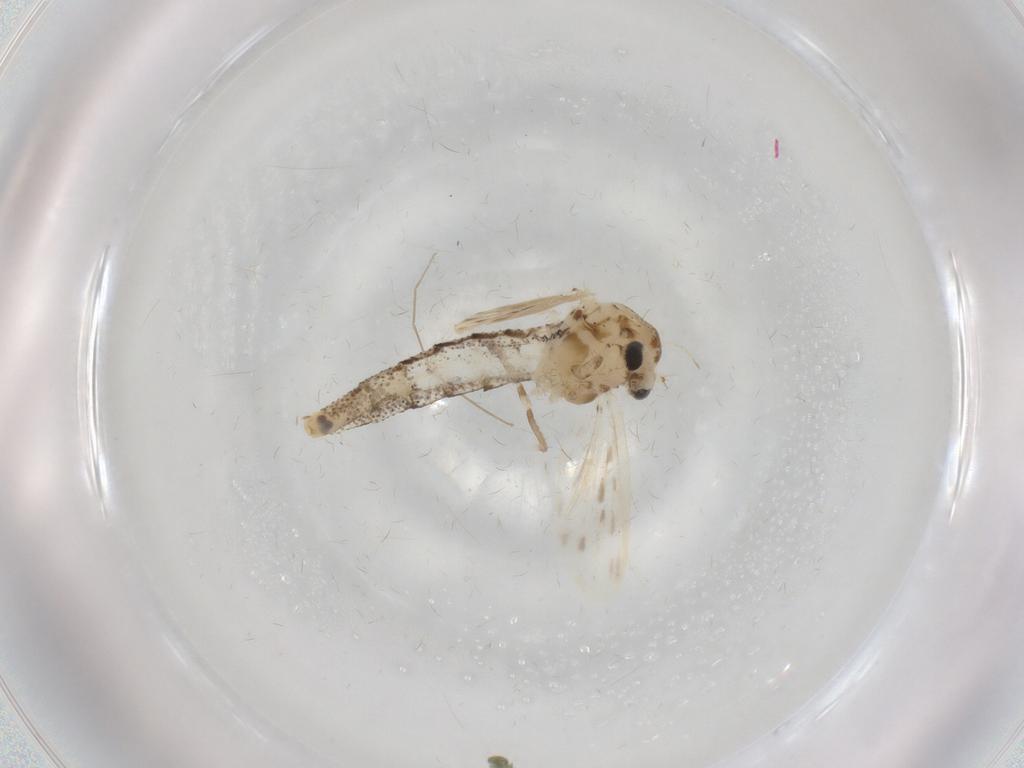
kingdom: Animalia
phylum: Arthropoda
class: Insecta
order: Diptera
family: Chaoboridae
